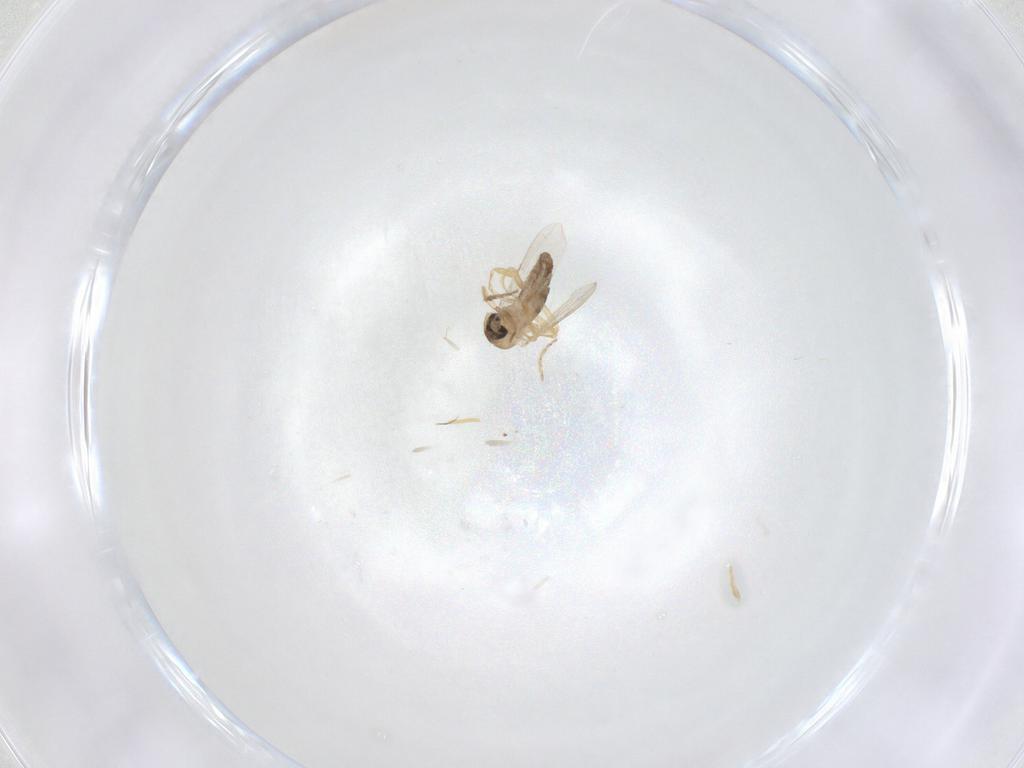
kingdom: Animalia
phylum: Arthropoda
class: Insecta
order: Diptera
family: Ceratopogonidae
